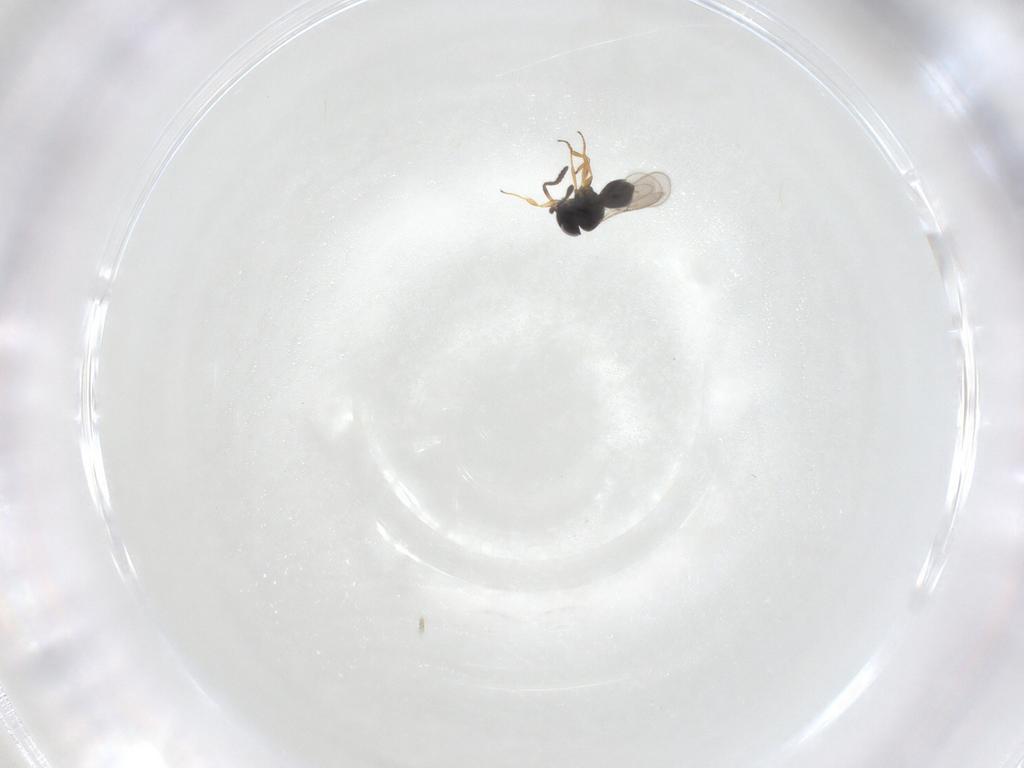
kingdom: Animalia
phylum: Arthropoda
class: Insecta
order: Hymenoptera
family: Scelionidae
